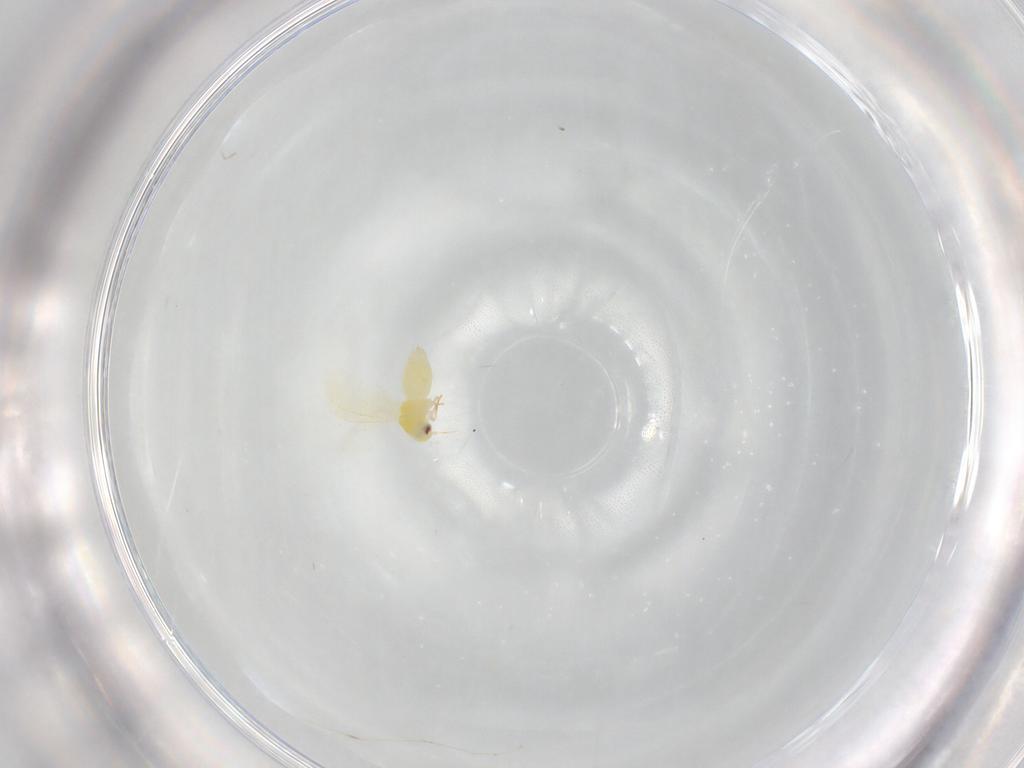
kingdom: Animalia
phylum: Arthropoda
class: Insecta
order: Hemiptera
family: Aleyrodidae
